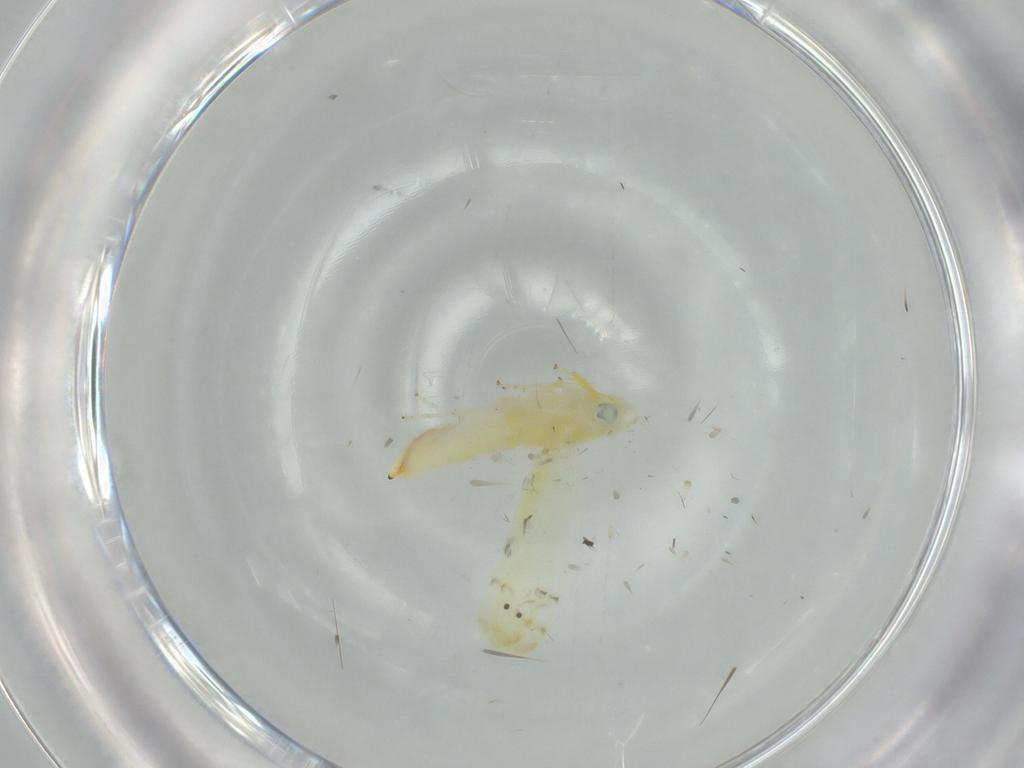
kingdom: Animalia
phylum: Arthropoda
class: Insecta
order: Hemiptera
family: Cicadellidae
